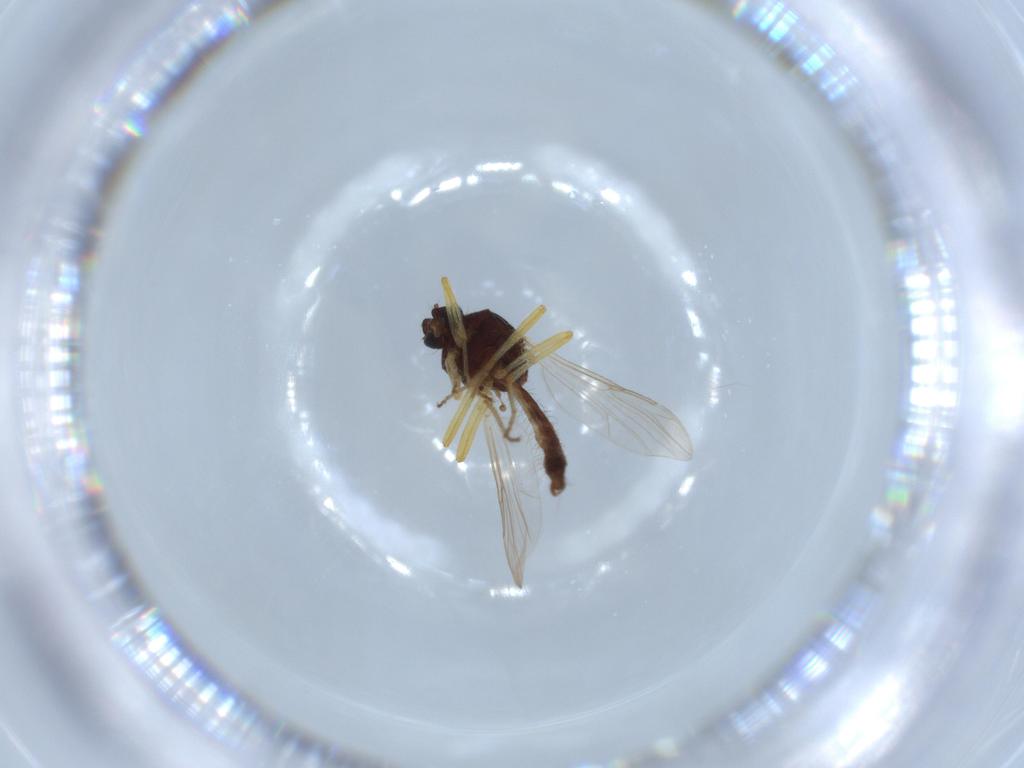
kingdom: Animalia
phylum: Arthropoda
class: Insecta
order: Diptera
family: Ceratopogonidae
